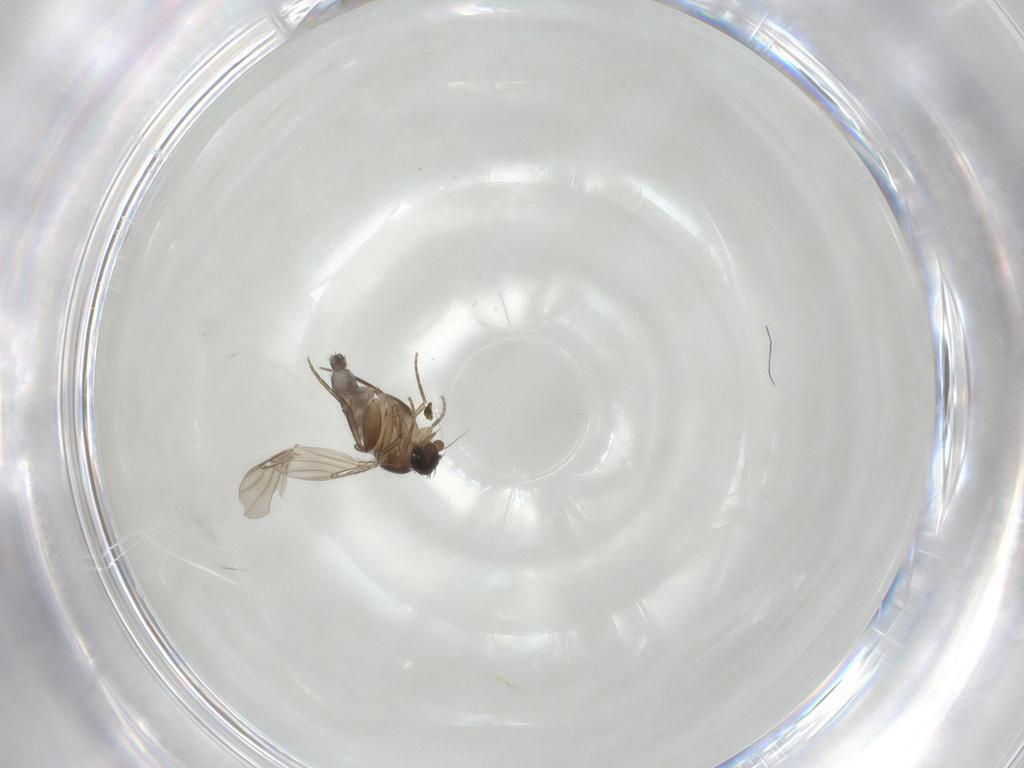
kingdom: Animalia
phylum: Arthropoda
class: Insecta
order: Diptera
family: Phoridae
